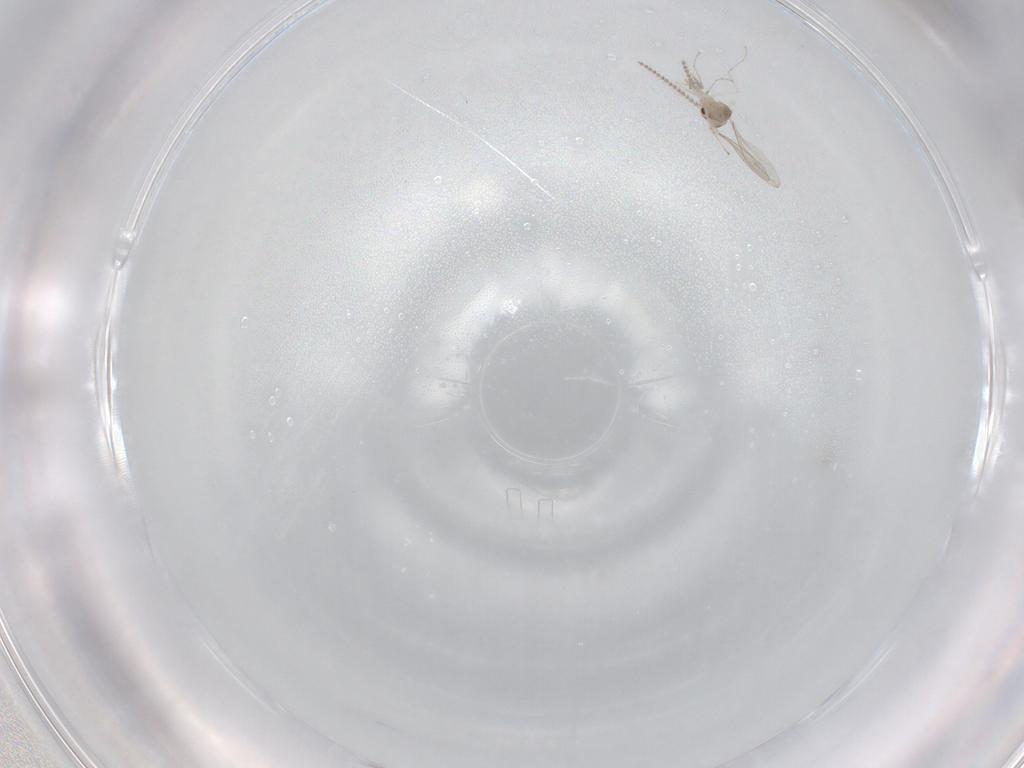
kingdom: Animalia
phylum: Arthropoda
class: Insecta
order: Diptera
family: Cecidomyiidae
